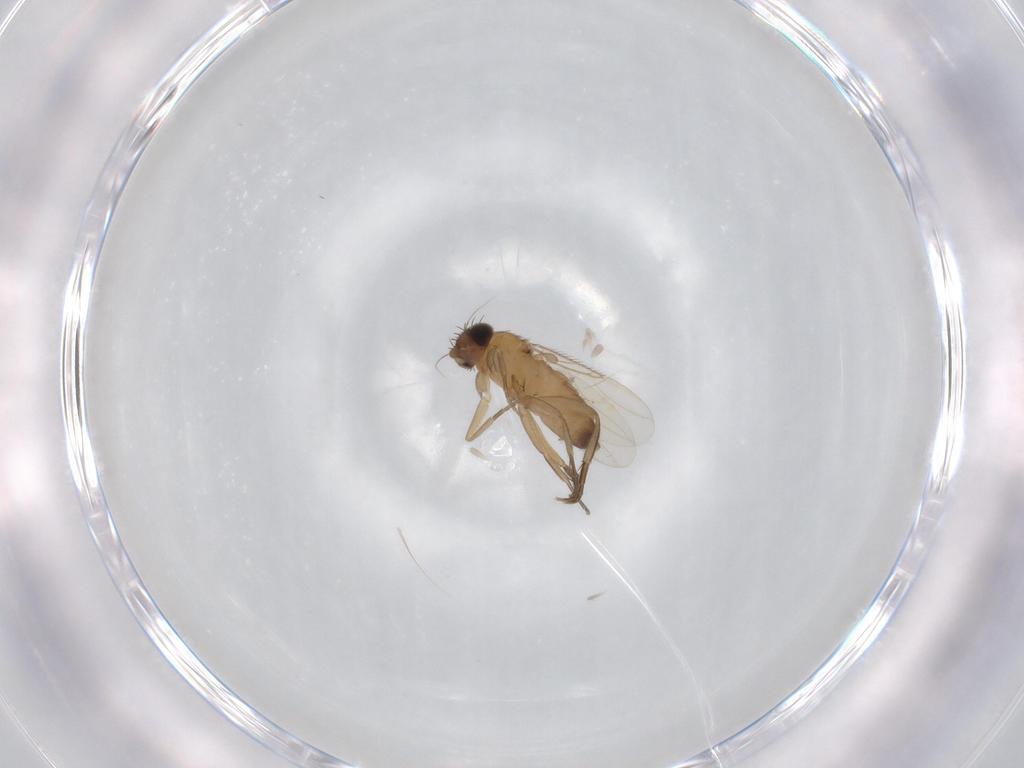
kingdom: Animalia
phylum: Arthropoda
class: Insecta
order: Diptera
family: Phoridae
